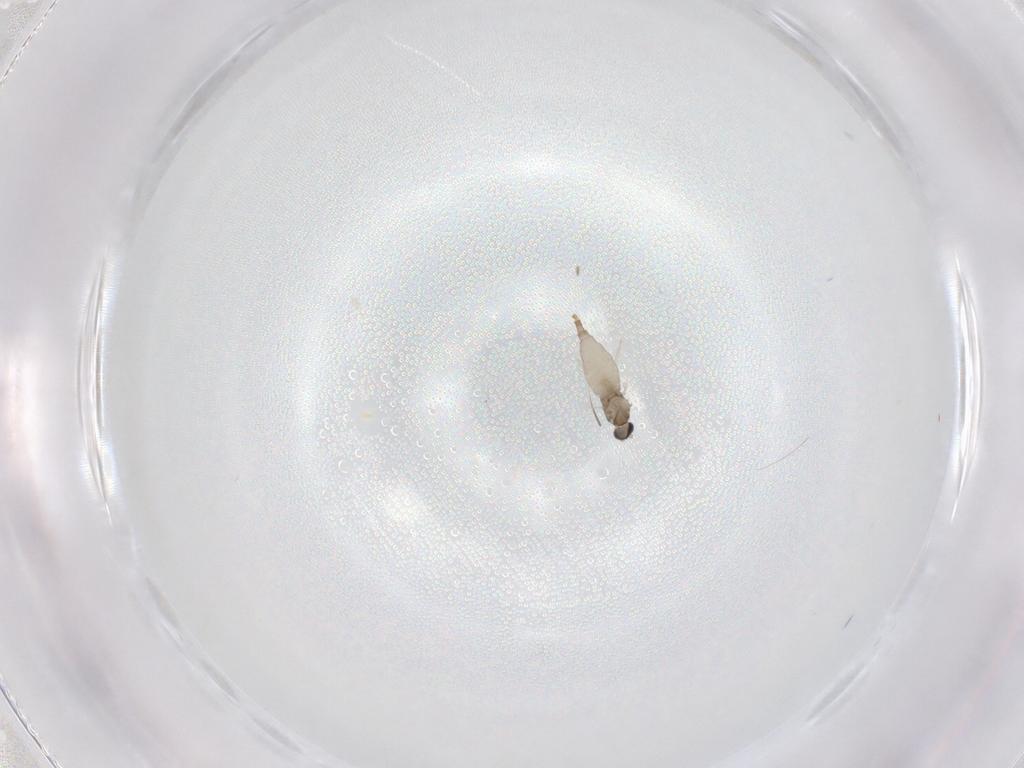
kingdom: Animalia
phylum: Arthropoda
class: Insecta
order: Diptera
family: Cecidomyiidae
